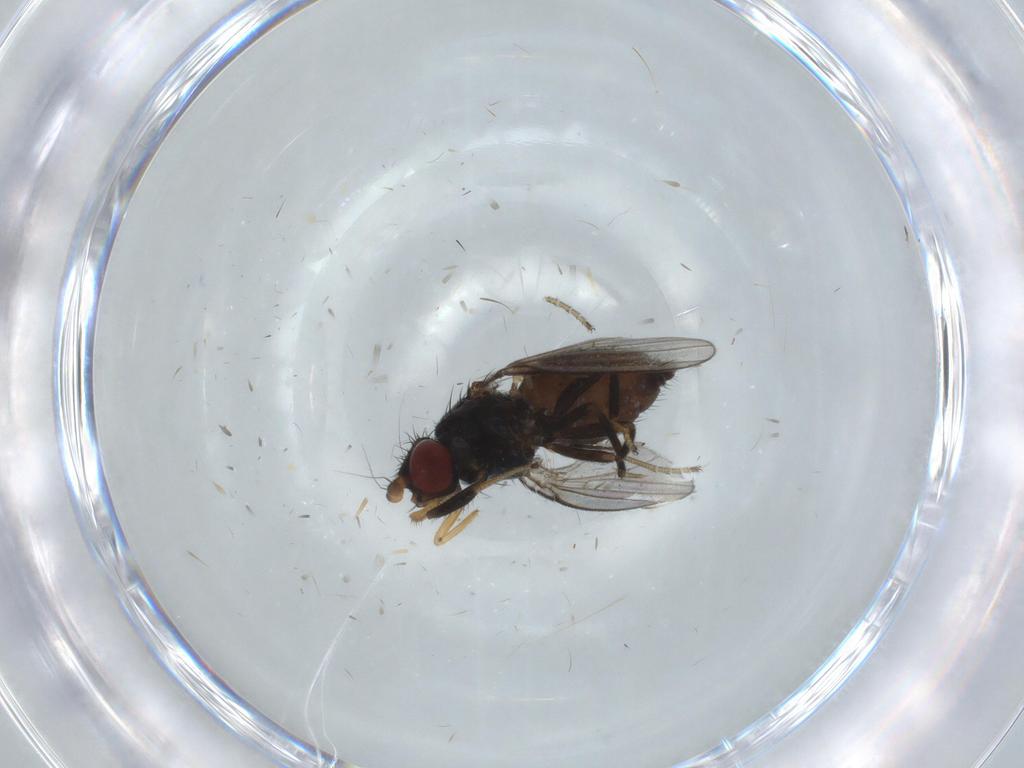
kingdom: Animalia
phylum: Arthropoda
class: Insecta
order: Diptera
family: Milichiidae
